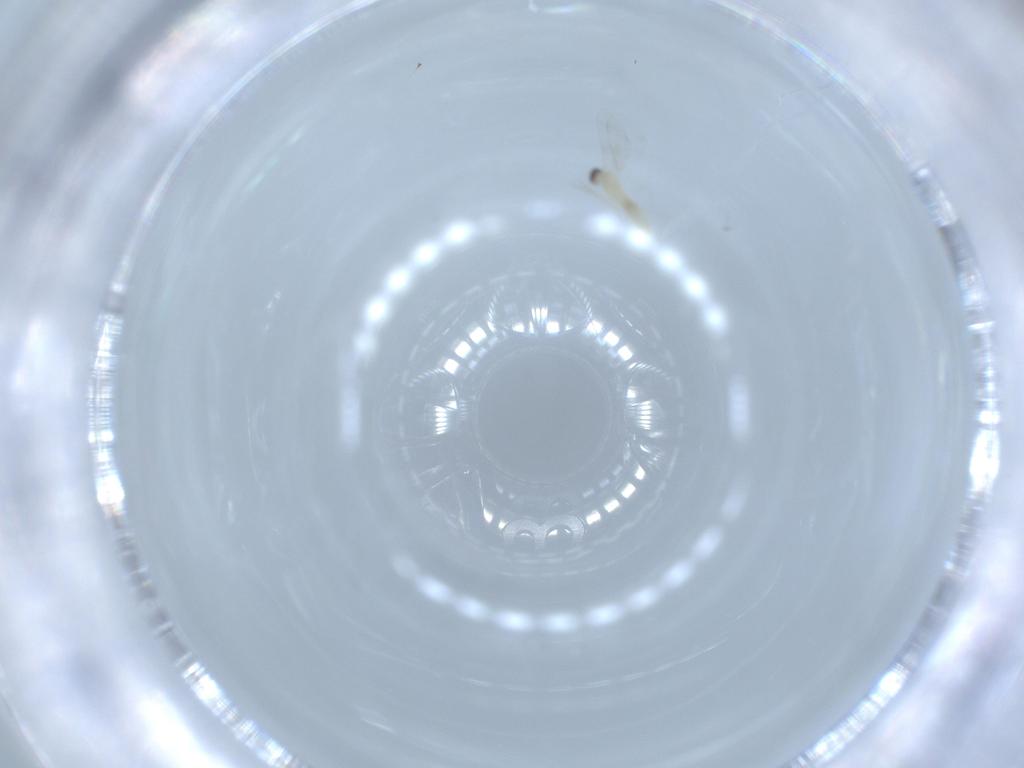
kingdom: Animalia
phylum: Arthropoda
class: Insecta
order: Diptera
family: Cecidomyiidae
